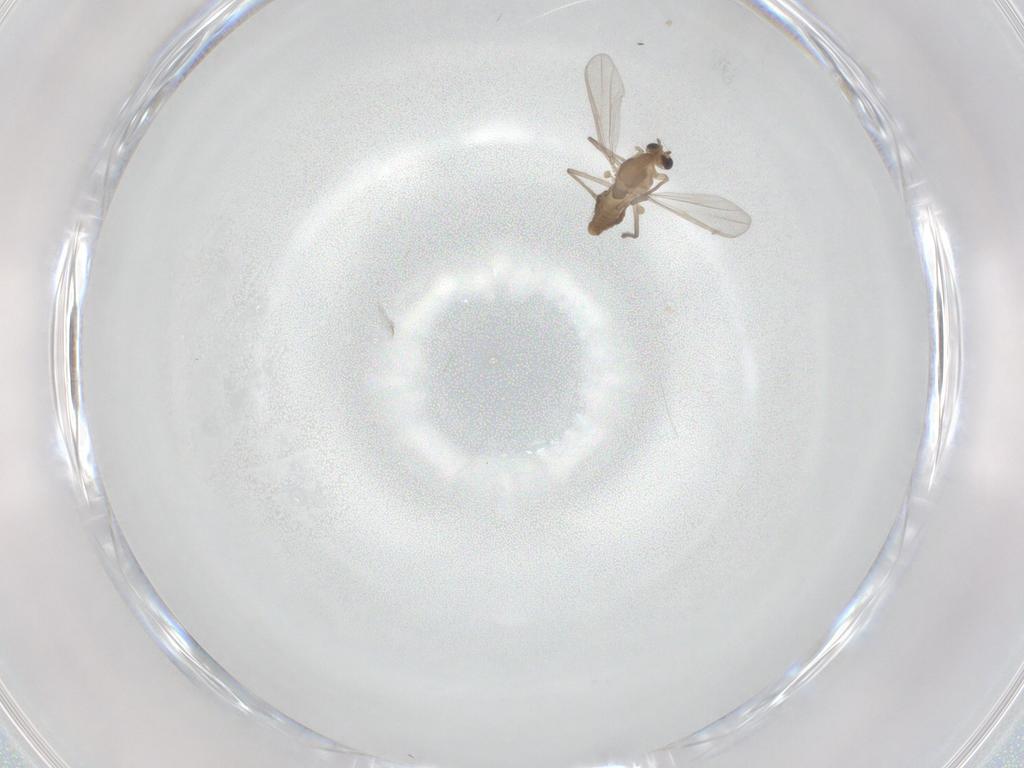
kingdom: Animalia
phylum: Arthropoda
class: Insecta
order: Diptera
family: Chironomidae
